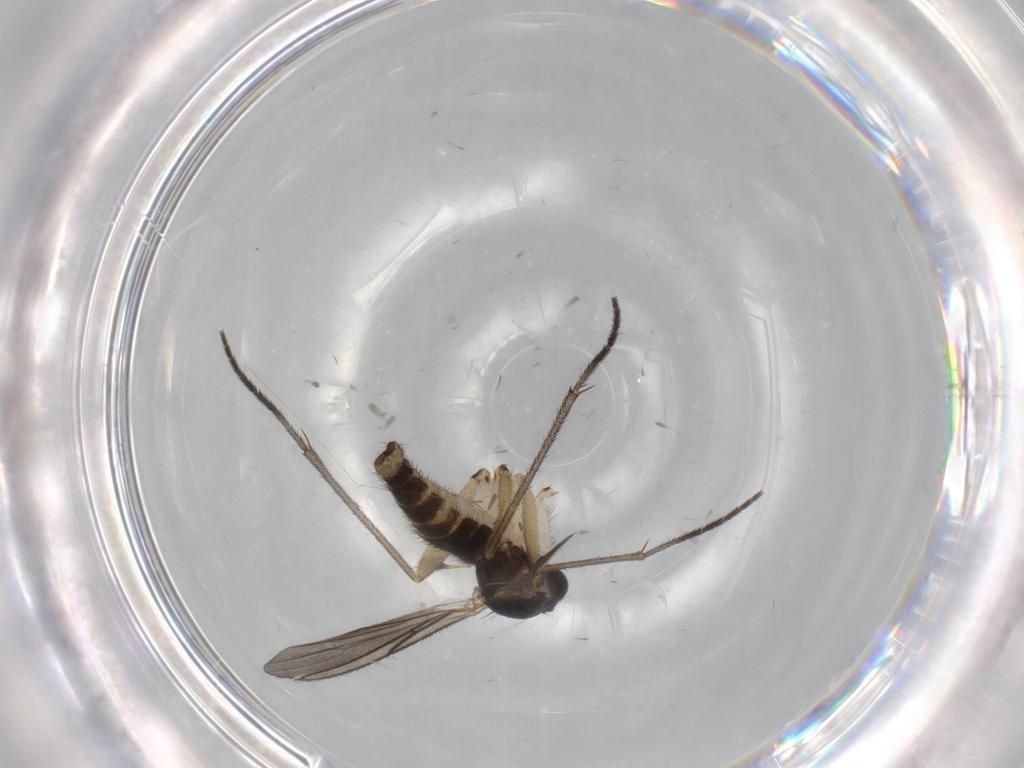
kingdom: Animalia
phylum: Arthropoda
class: Insecta
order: Diptera
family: Sciaridae
